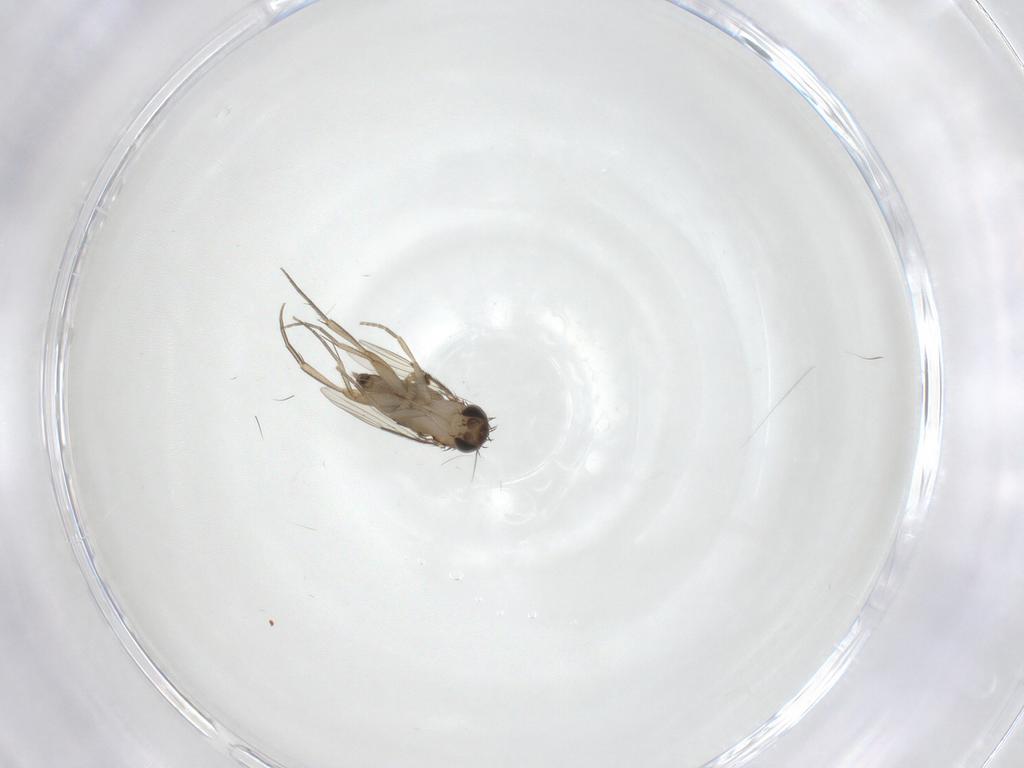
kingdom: Animalia
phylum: Arthropoda
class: Insecta
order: Diptera
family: Phoridae
